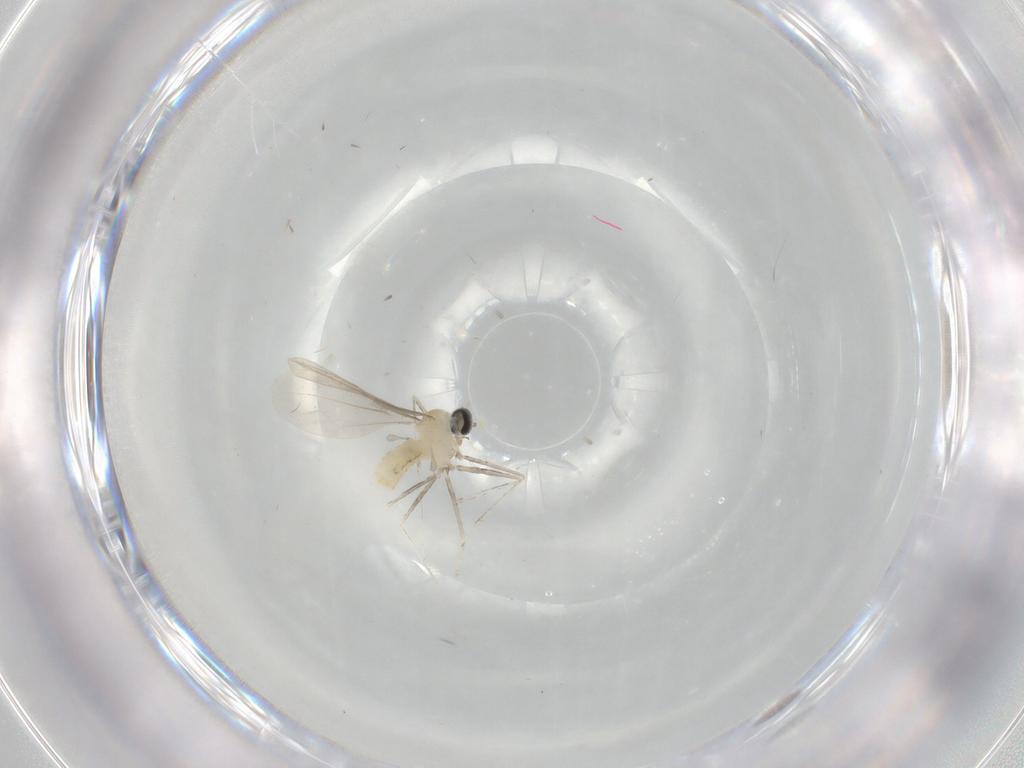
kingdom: Animalia
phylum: Arthropoda
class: Insecta
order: Diptera
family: Cecidomyiidae
